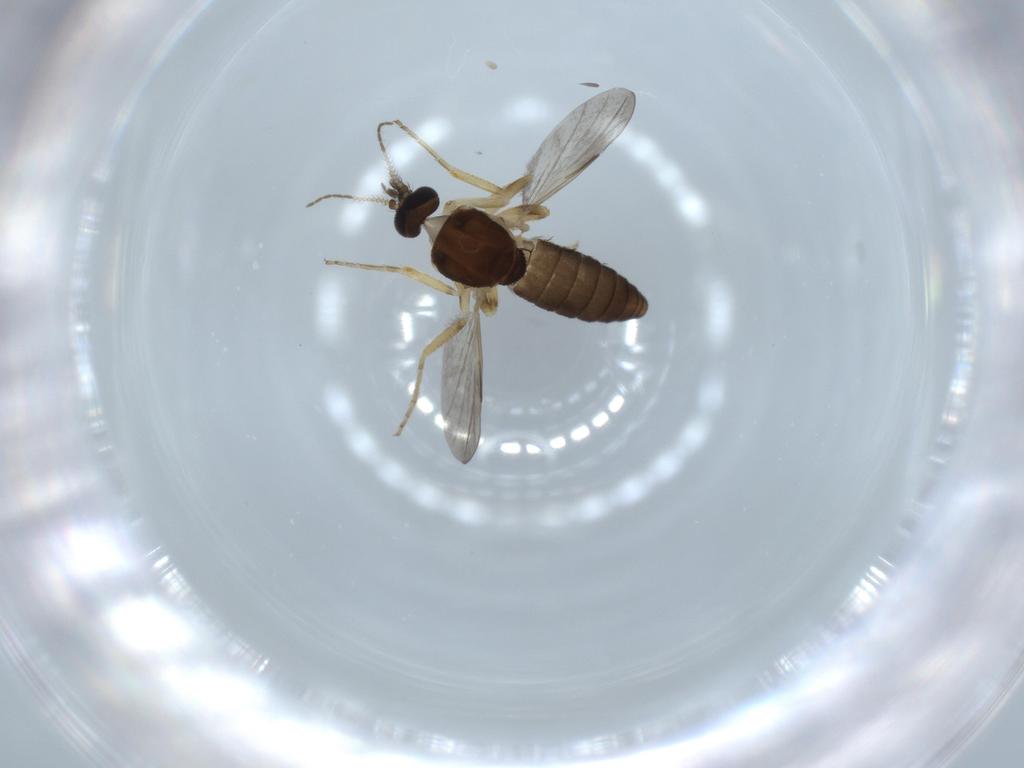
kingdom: Animalia
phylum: Arthropoda
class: Insecta
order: Diptera
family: Ceratopogonidae
